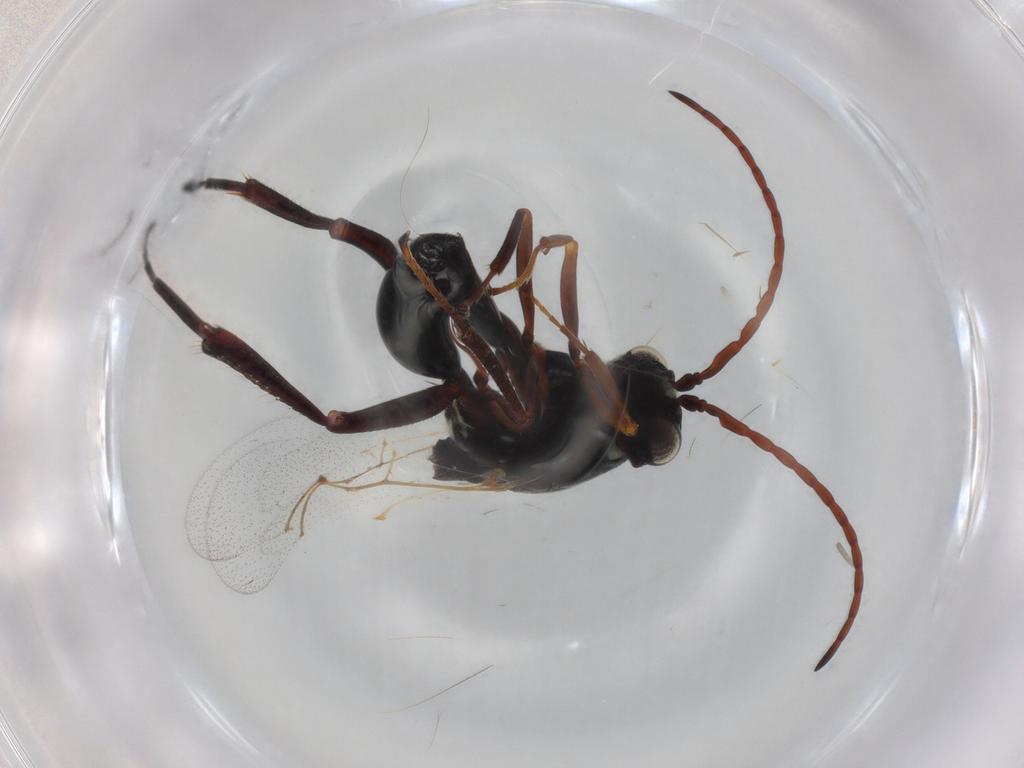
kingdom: Animalia
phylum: Arthropoda
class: Insecta
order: Hymenoptera
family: Figitidae
